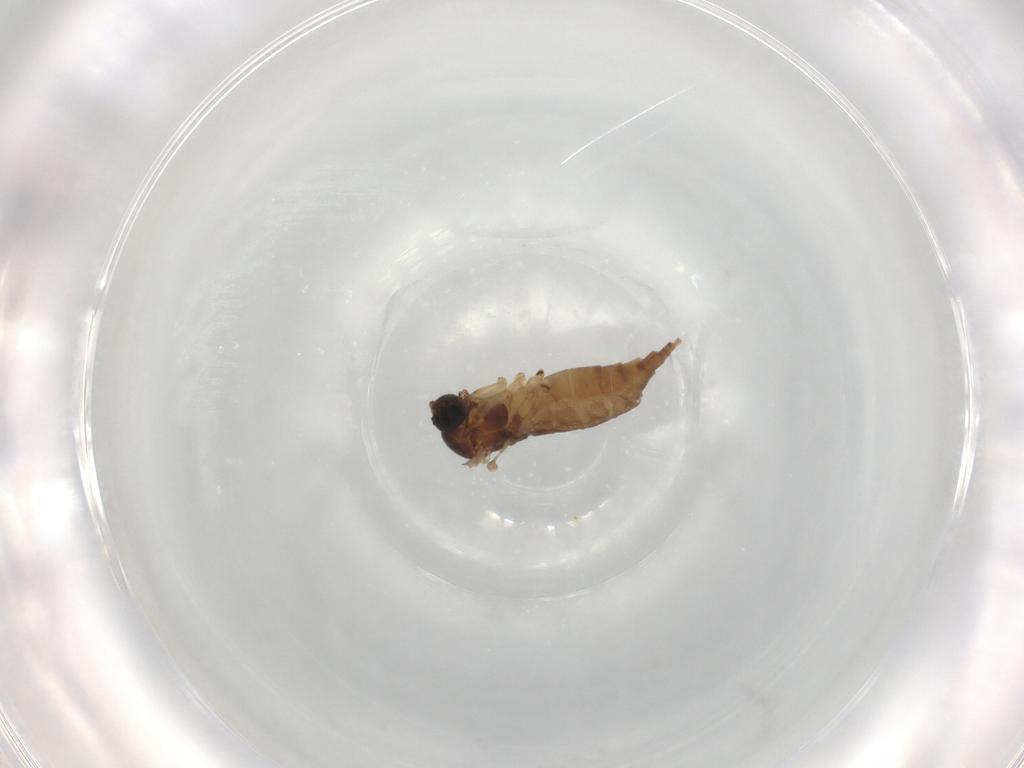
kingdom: Animalia
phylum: Arthropoda
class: Insecta
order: Diptera
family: Sciaridae
